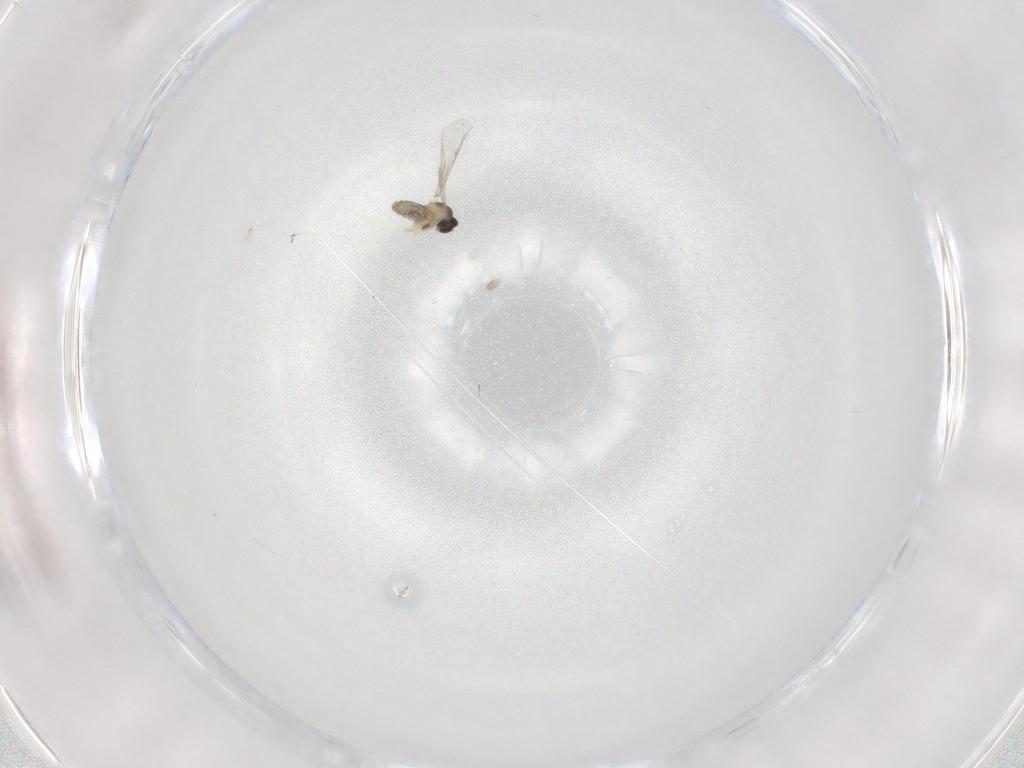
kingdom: Animalia
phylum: Arthropoda
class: Insecta
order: Diptera
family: Cecidomyiidae
